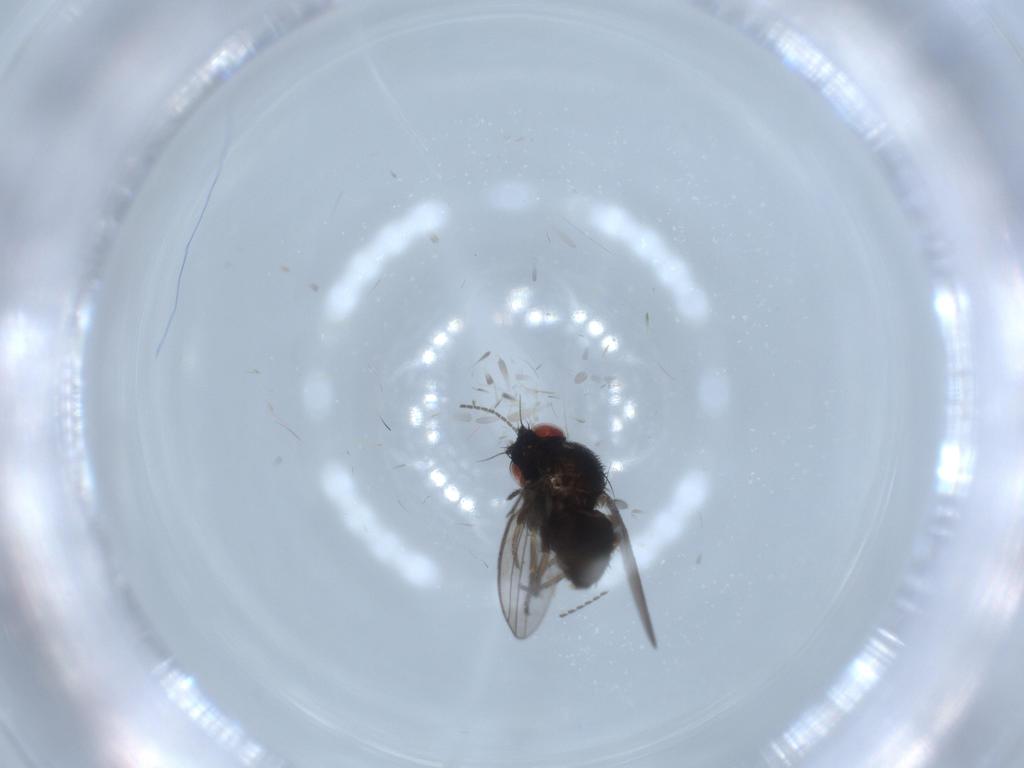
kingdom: Animalia
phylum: Arthropoda
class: Insecta
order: Diptera
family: Milichiidae
